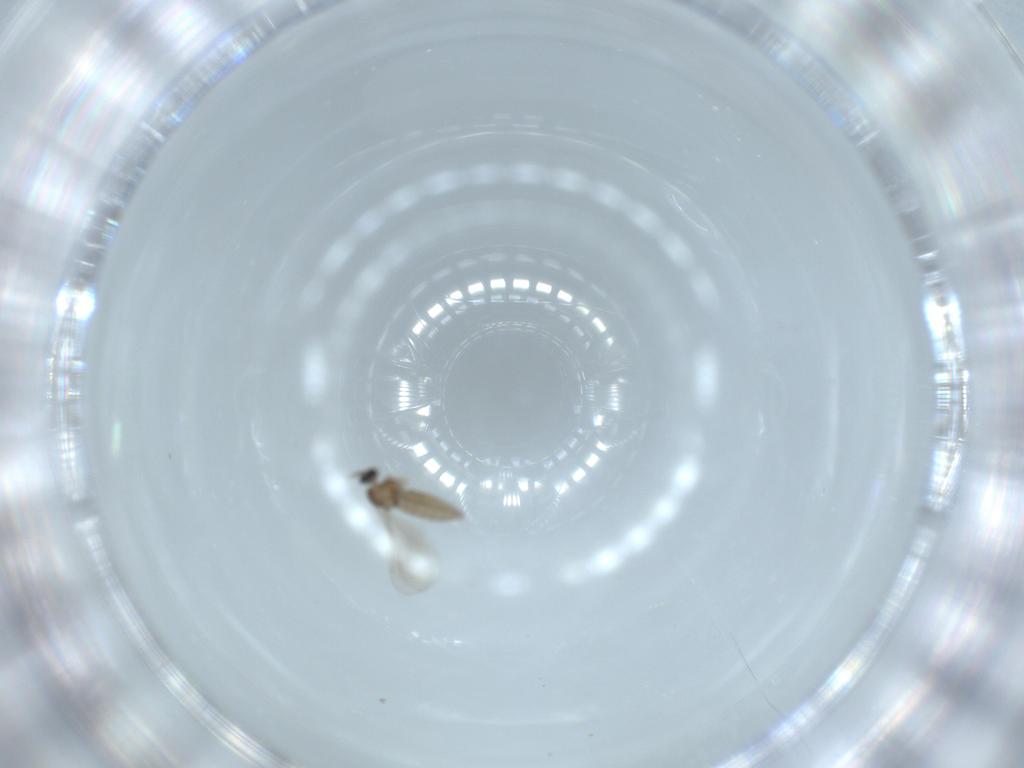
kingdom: Animalia
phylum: Arthropoda
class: Insecta
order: Diptera
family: Cecidomyiidae
